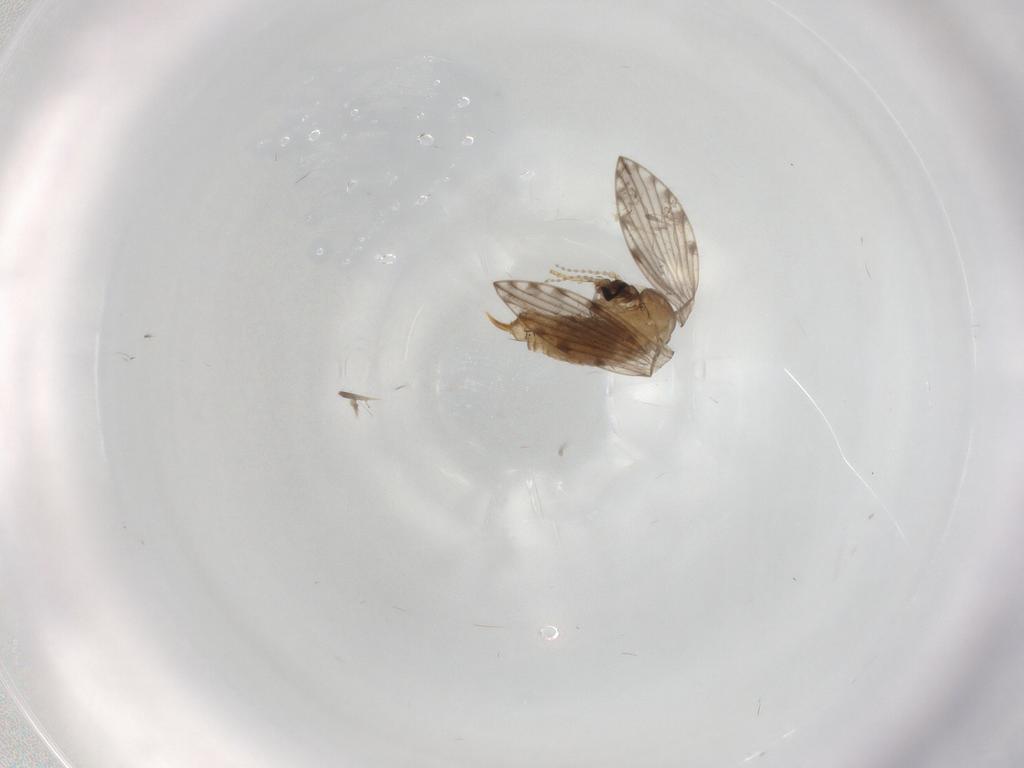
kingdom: Animalia
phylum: Arthropoda
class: Insecta
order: Diptera
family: Psychodidae
